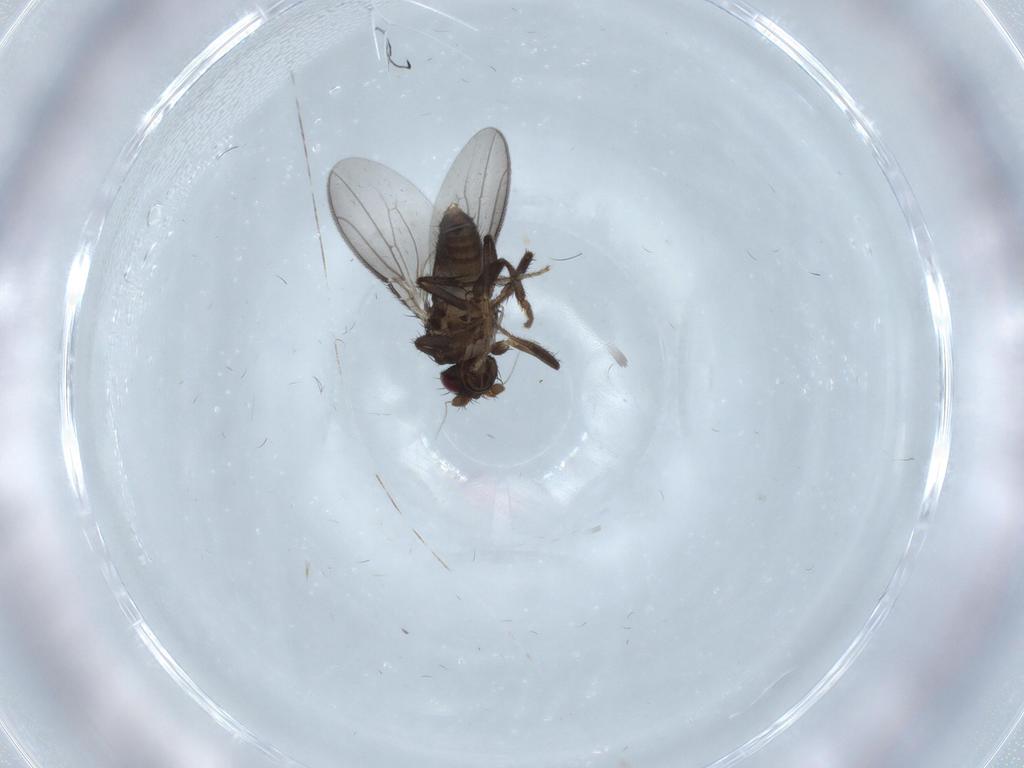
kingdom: Animalia
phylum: Arthropoda
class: Insecta
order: Diptera
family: Sphaeroceridae
